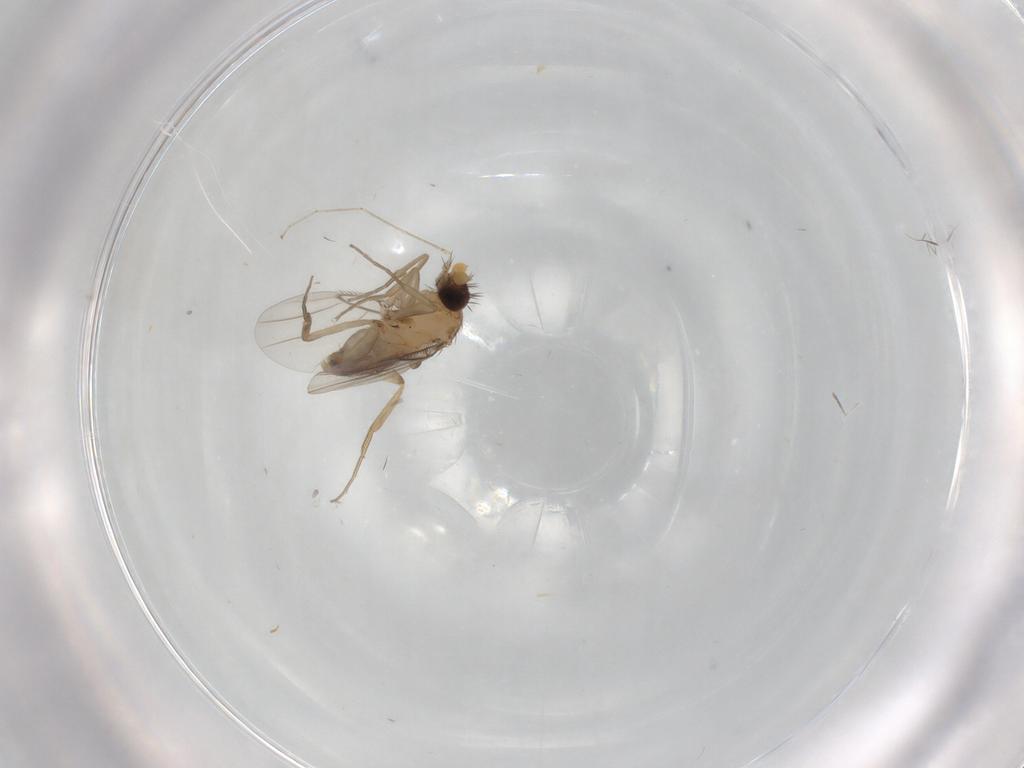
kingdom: Animalia
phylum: Arthropoda
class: Insecta
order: Diptera
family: Phoridae
